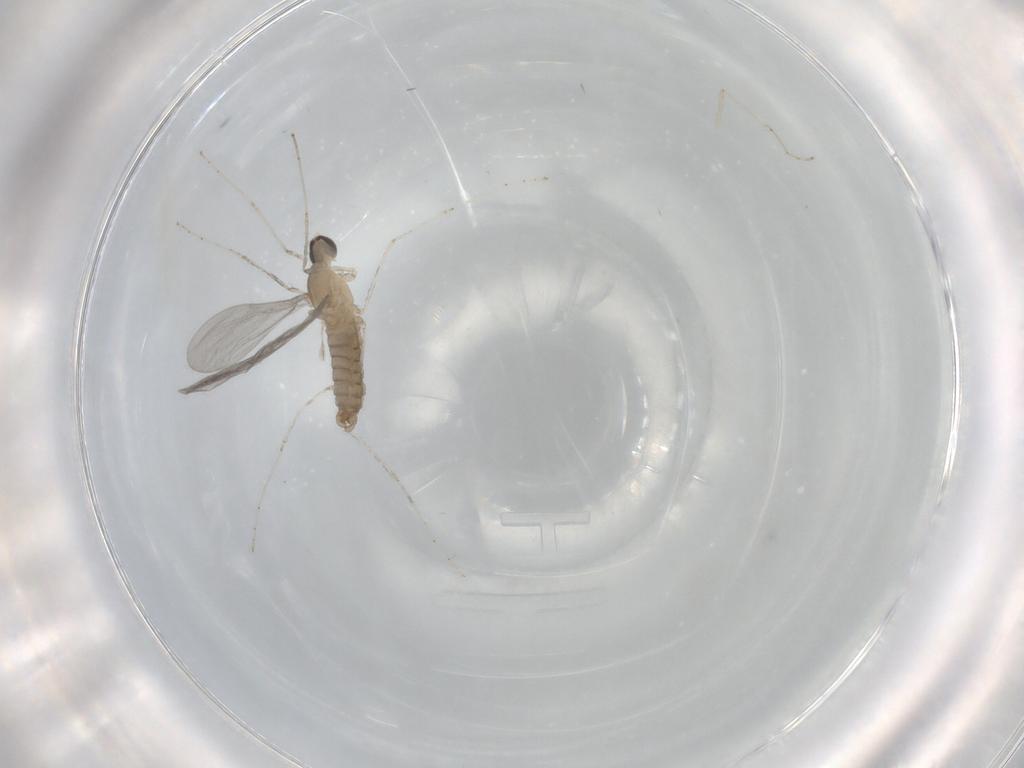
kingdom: Animalia
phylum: Arthropoda
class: Insecta
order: Diptera
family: Cecidomyiidae
